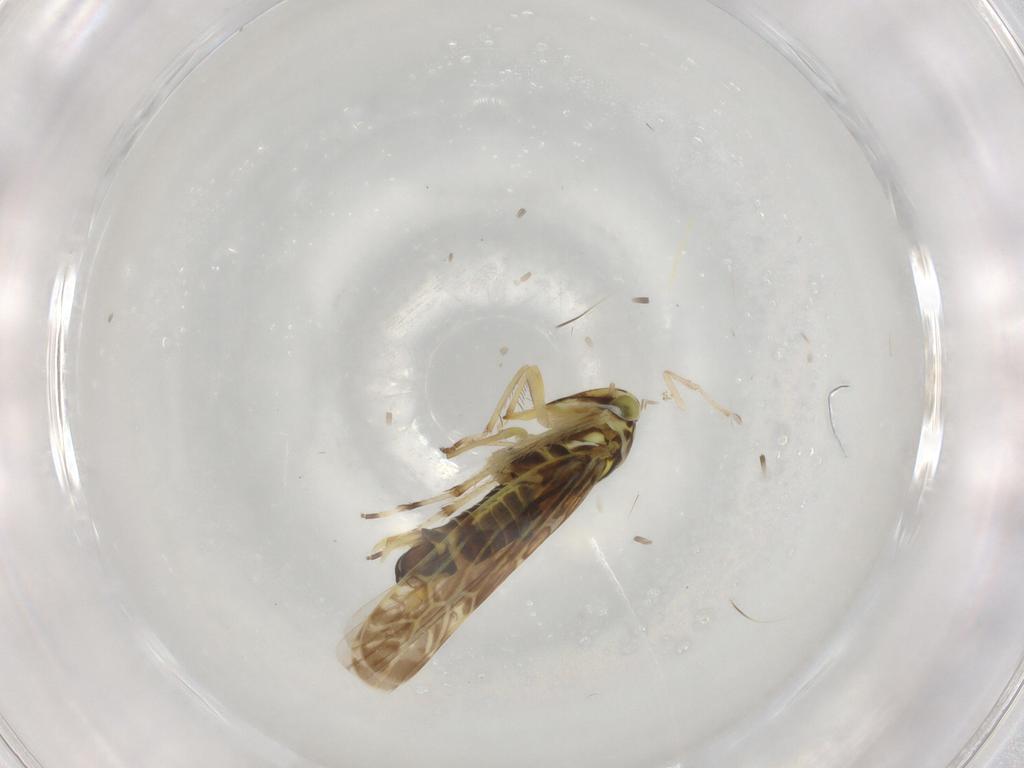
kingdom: Animalia
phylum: Arthropoda
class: Insecta
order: Hemiptera
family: Cicadellidae
